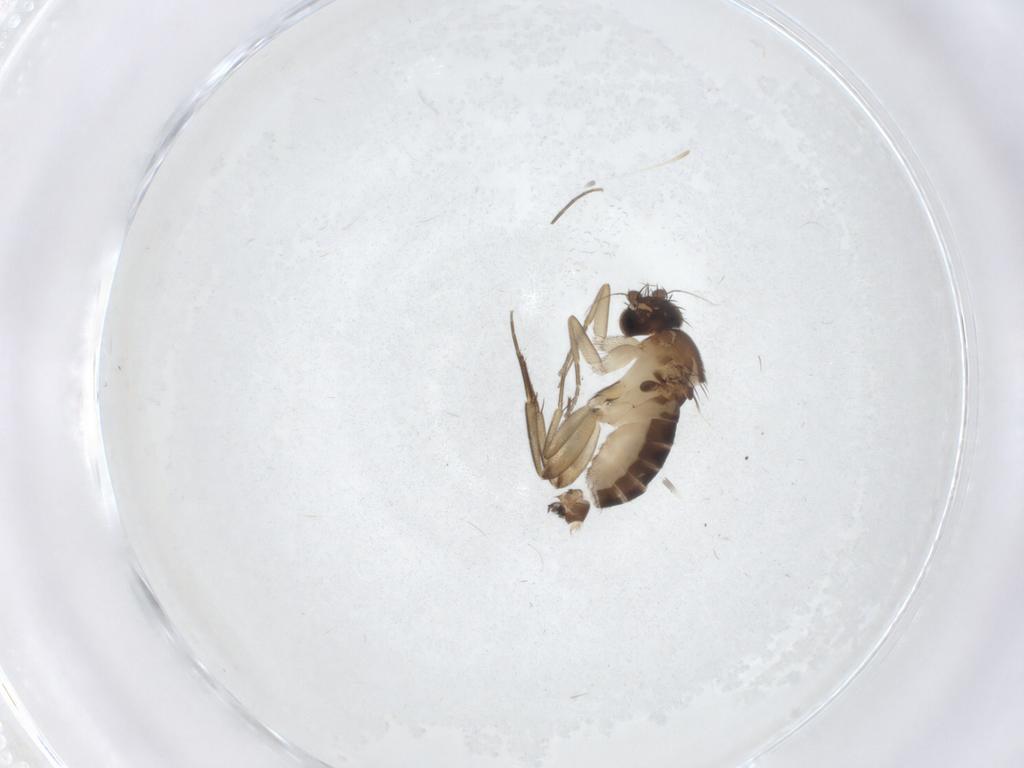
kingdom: Animalia
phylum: Arthropoda
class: Insecta
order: Diptera
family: Phoridae
